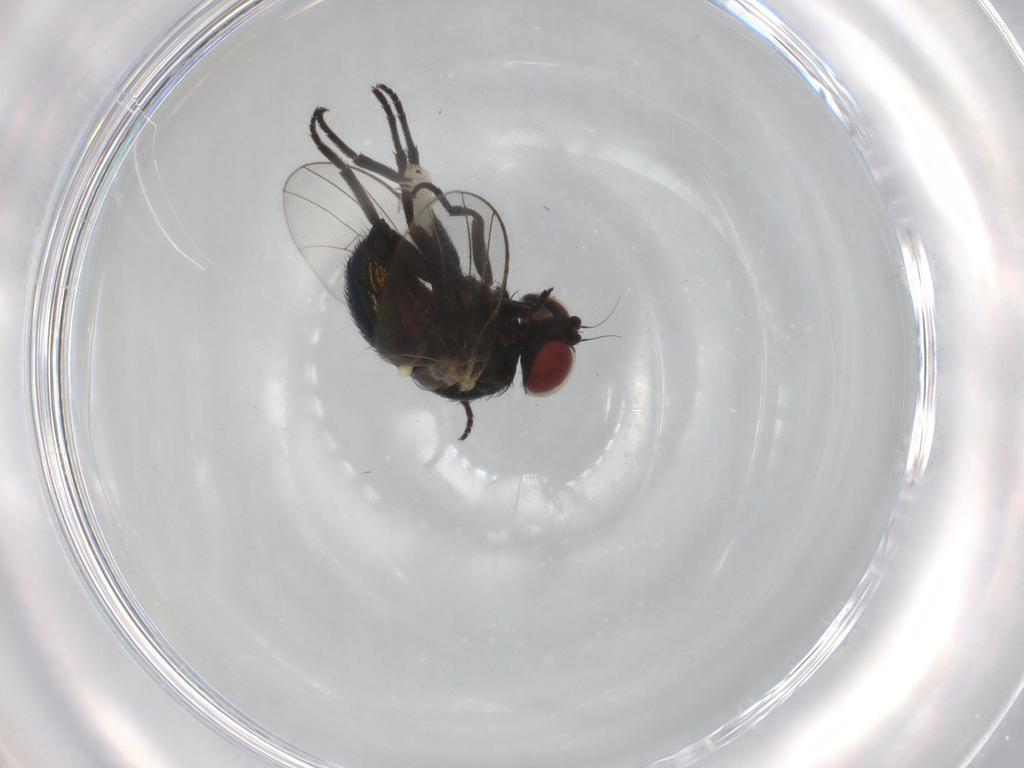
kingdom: Animalia
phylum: Arthropoda
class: Insecta
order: Diptera
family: Agromyzidae
